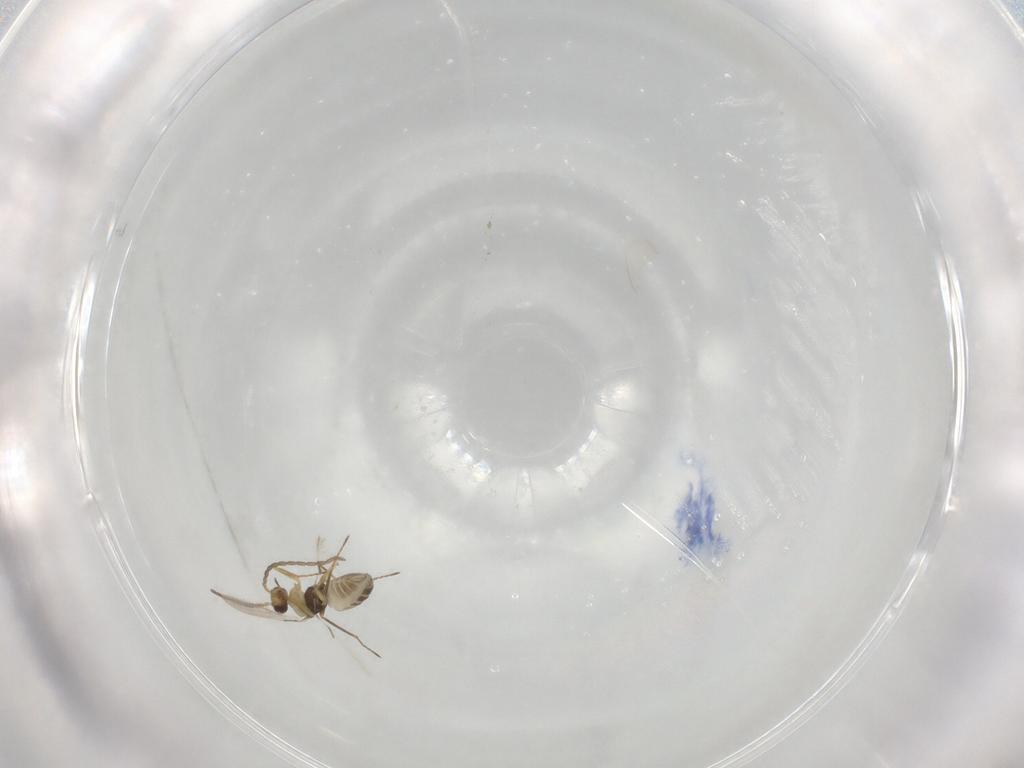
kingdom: Animalia
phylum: Arthropoda
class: Insecta
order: Hymenoptera
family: Mymaridae
